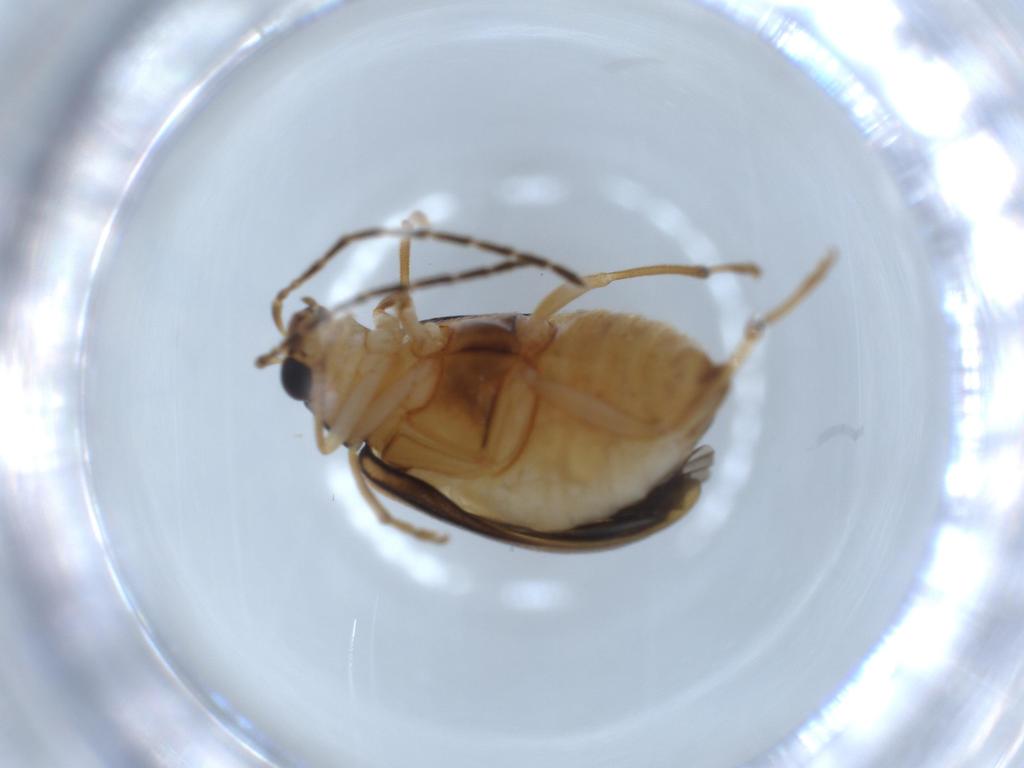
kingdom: Animalia
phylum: Arthropoda
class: Insecta
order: Coleoptera
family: Chrysomelidae
